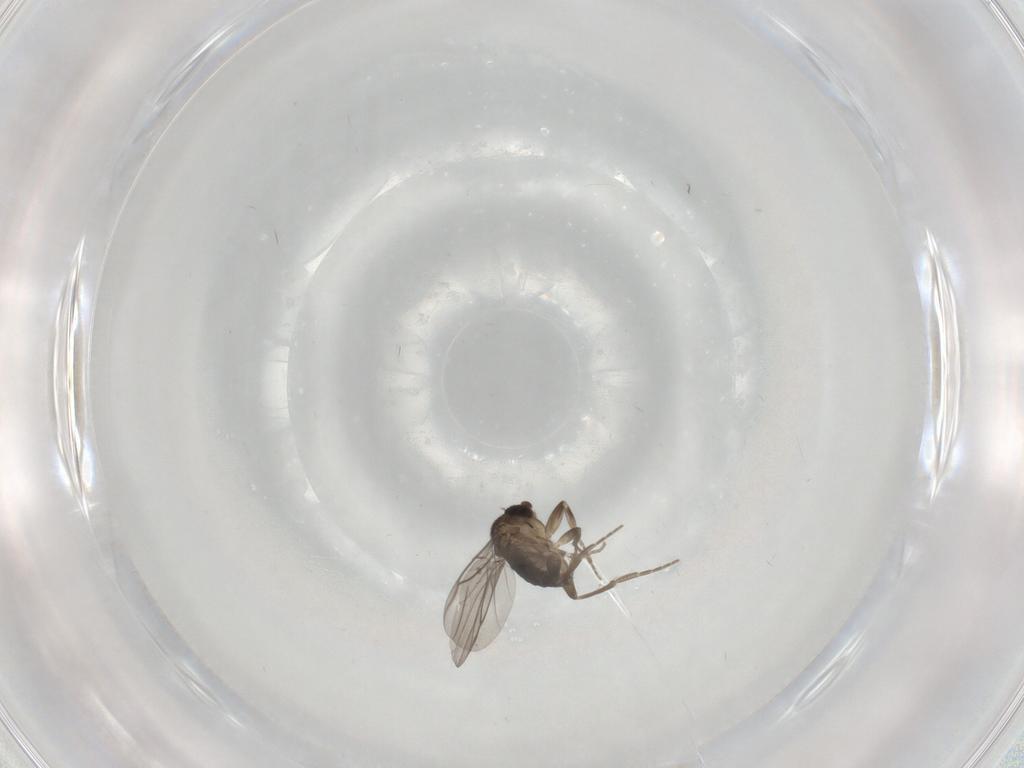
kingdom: Animalia
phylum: Arthropoda
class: Insecta
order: Diptera
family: Phoridae
